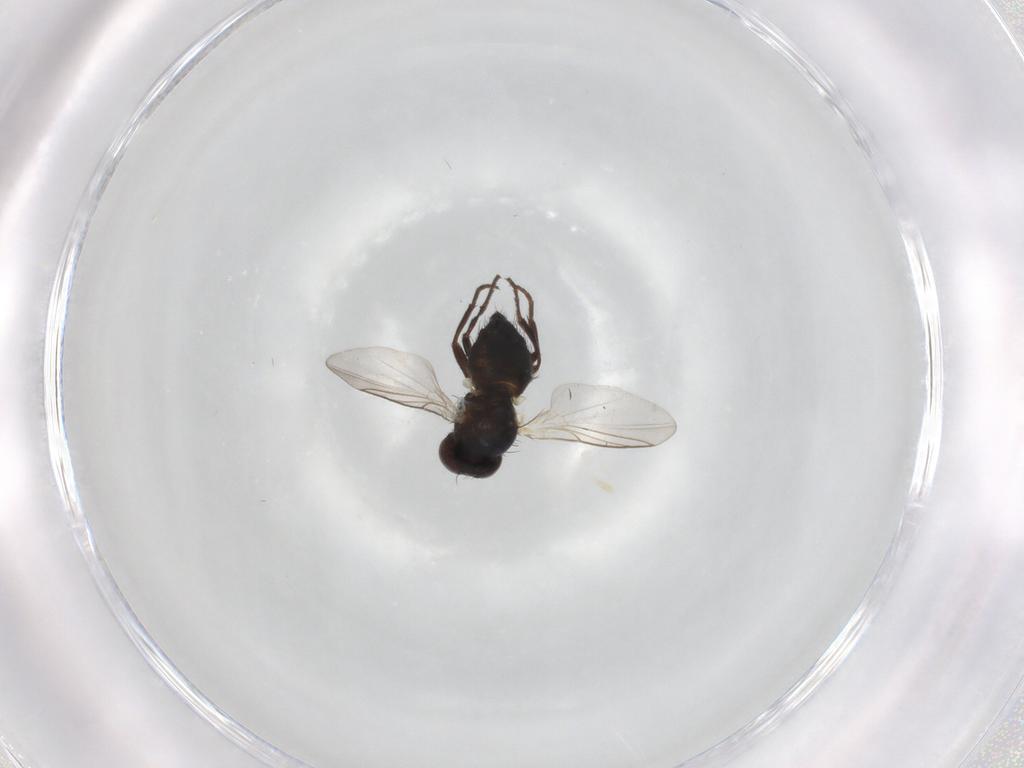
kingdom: Animalia
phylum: Arthropoda
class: Insecta
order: Diptera
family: Agromyzidae
